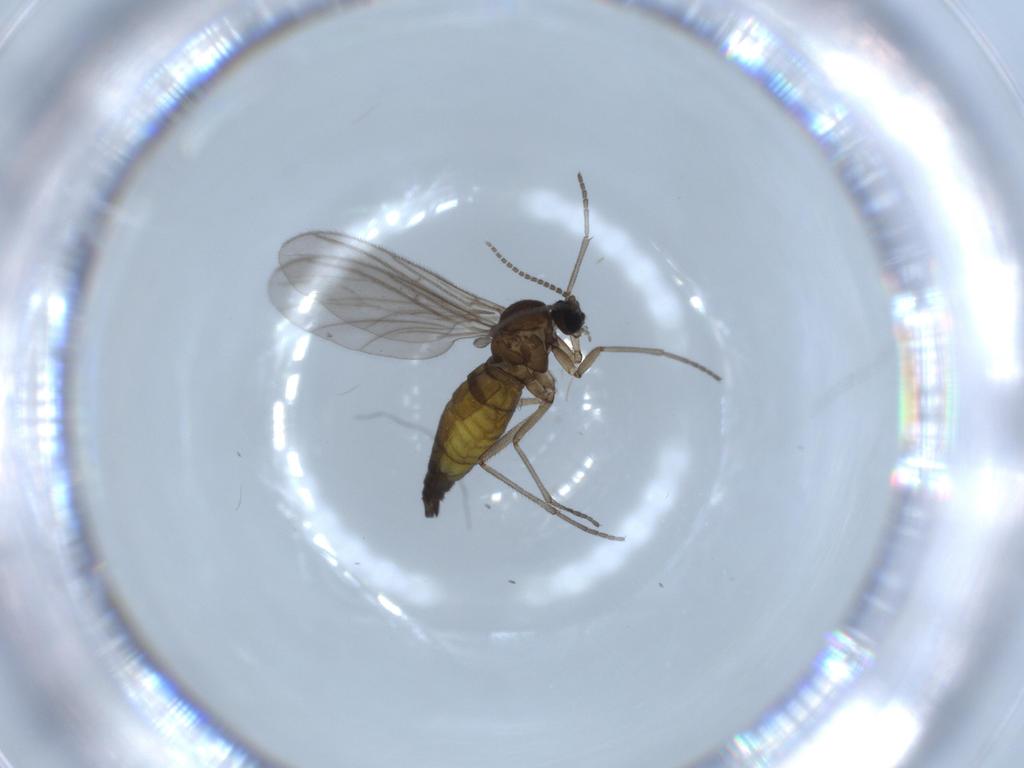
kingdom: Animalia
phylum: Arthropoda
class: Insecta
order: Diptera
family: Sciaridae
